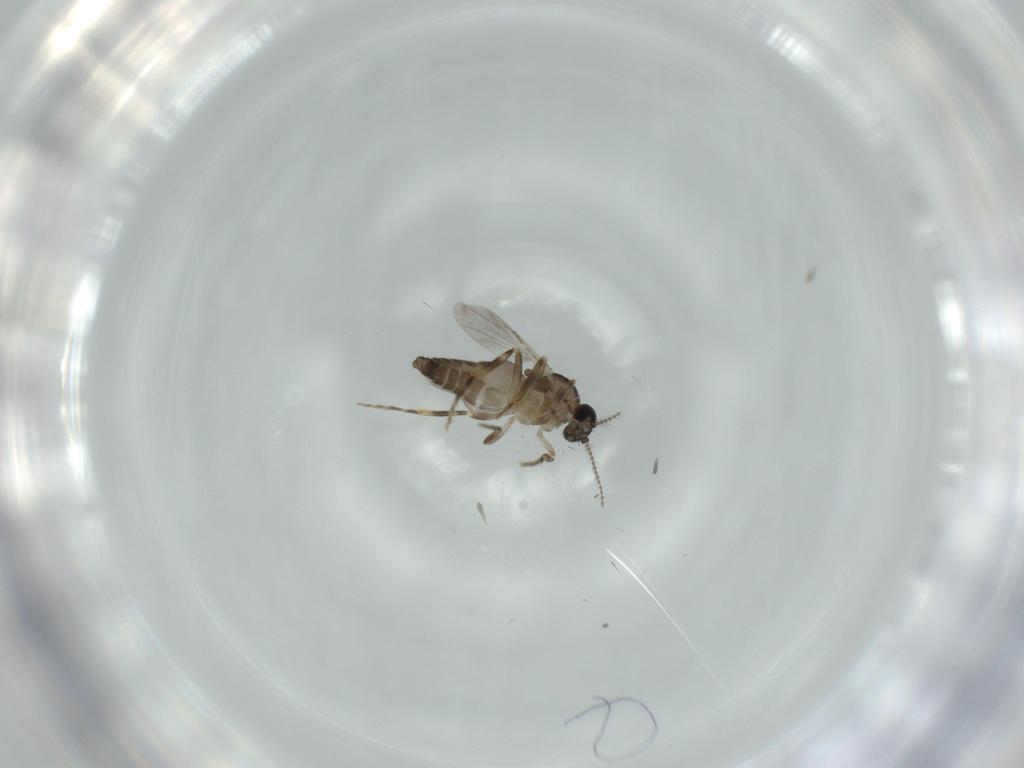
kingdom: Animalia
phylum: Arthropoda
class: Insecta
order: Diptera
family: Ceratopogonidae
